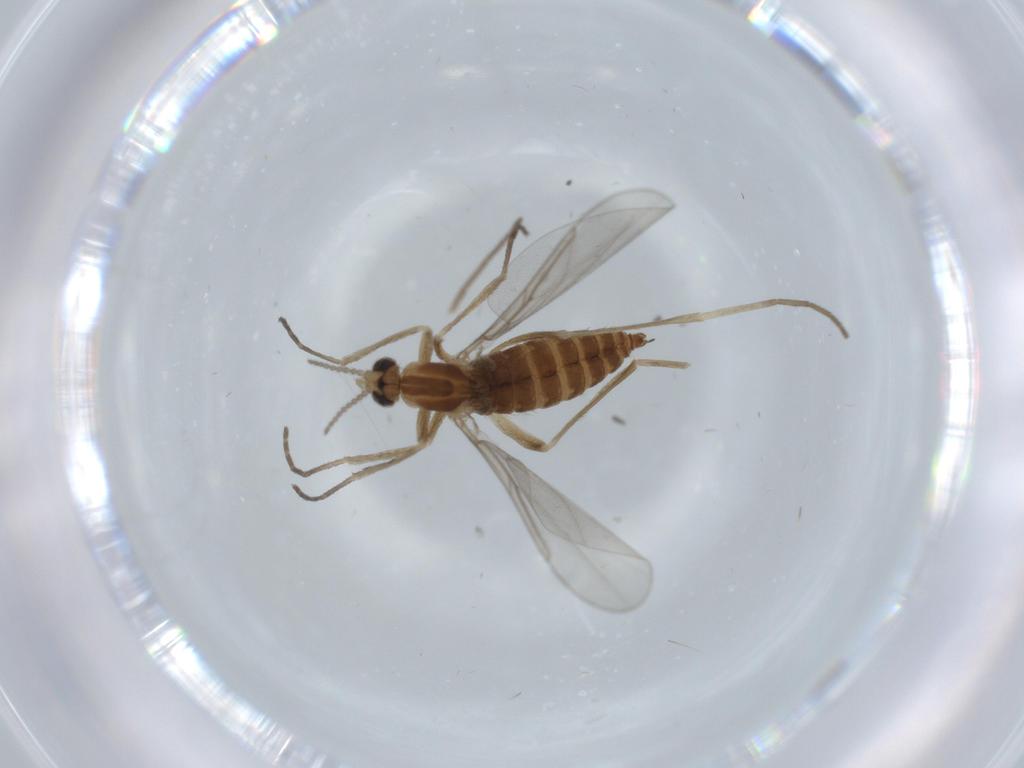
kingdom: Animalia
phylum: Arthropoda
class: Insecta
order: Diptera
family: Cecidomyiidae
